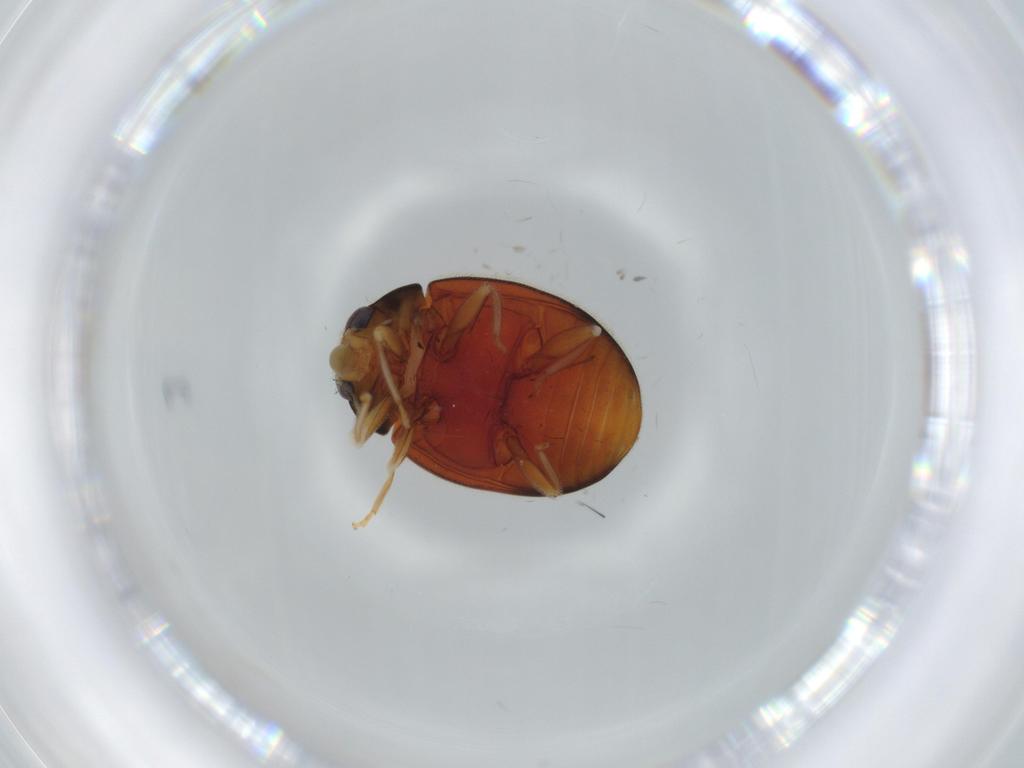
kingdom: Animalia
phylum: Arthropoda
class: Insecta
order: Coleoptera
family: Coccinellidae
